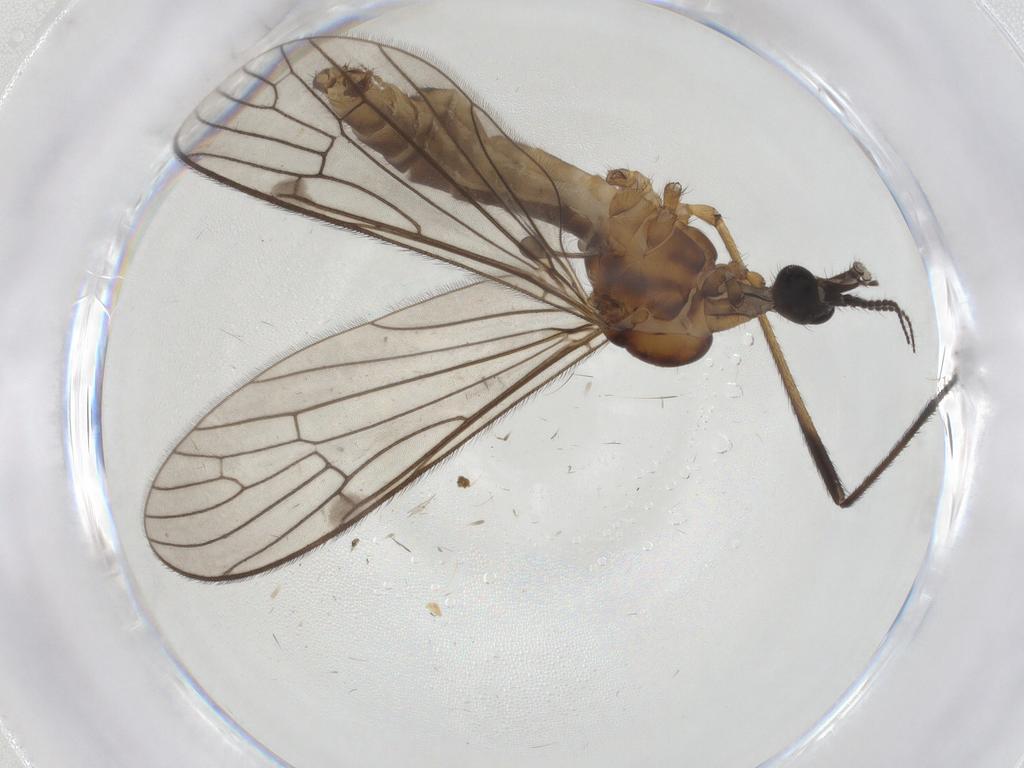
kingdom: Animalia
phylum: Arthropoda
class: Insecta
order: Diptera
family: Limoniidae
